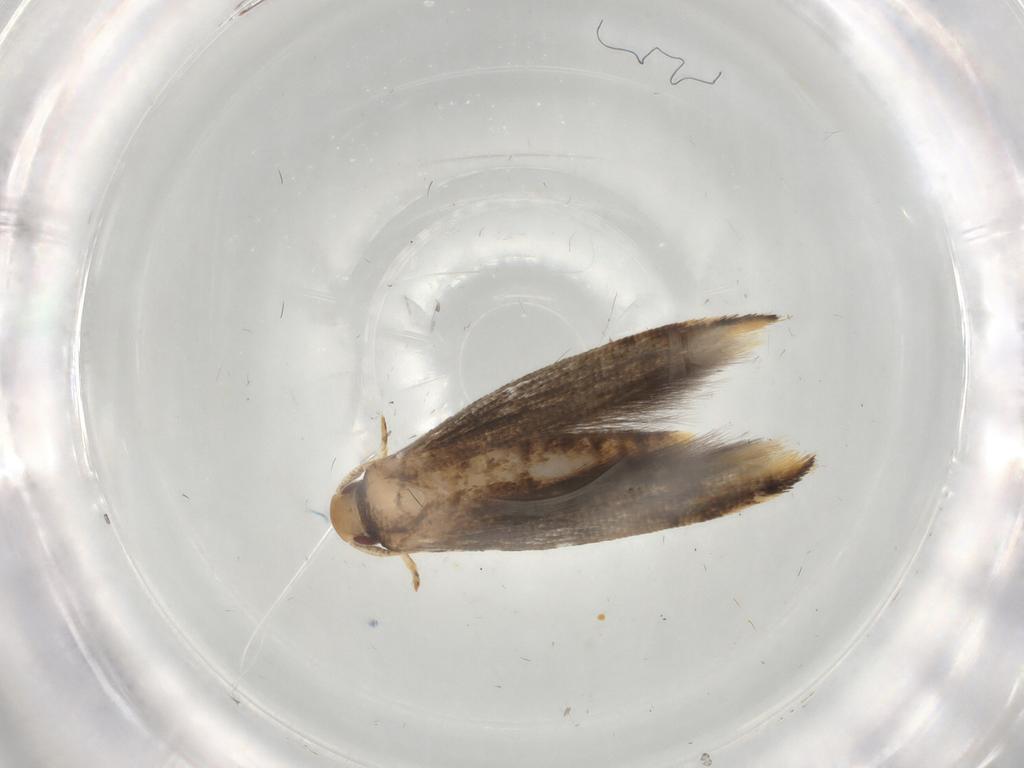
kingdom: Animalia
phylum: Arthropoda
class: Insecta
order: Lepidoptera
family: Momphidae
